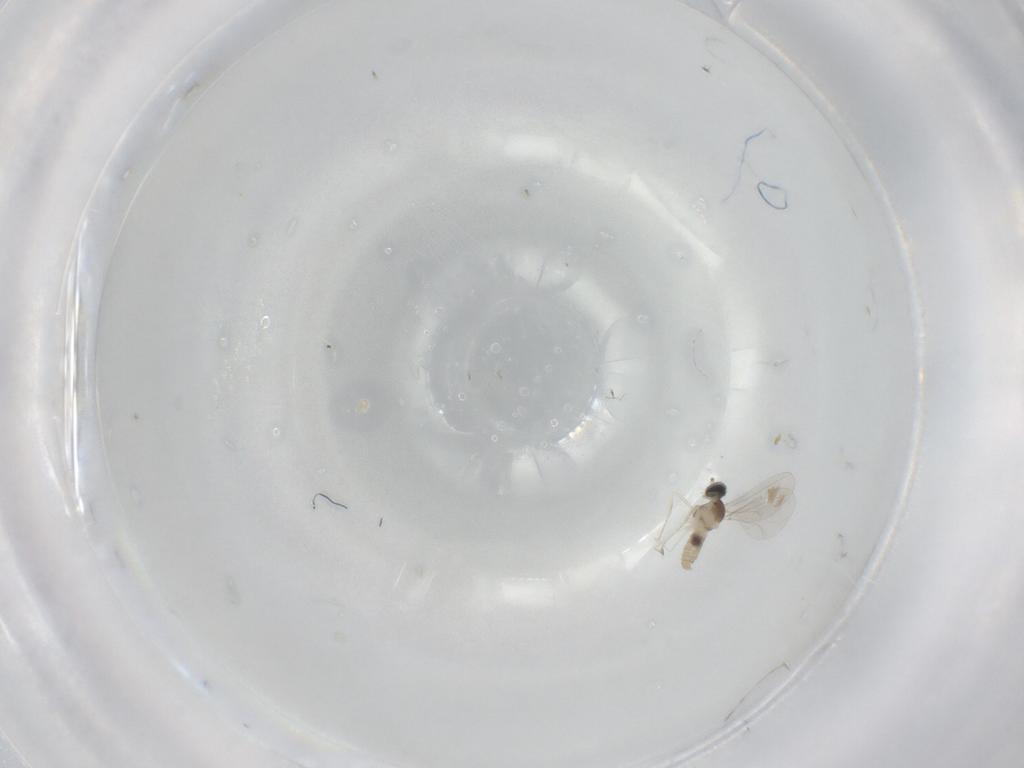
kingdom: Animalia
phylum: Arthropoda
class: Insecta
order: Diptera
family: Cecidomyiidae
